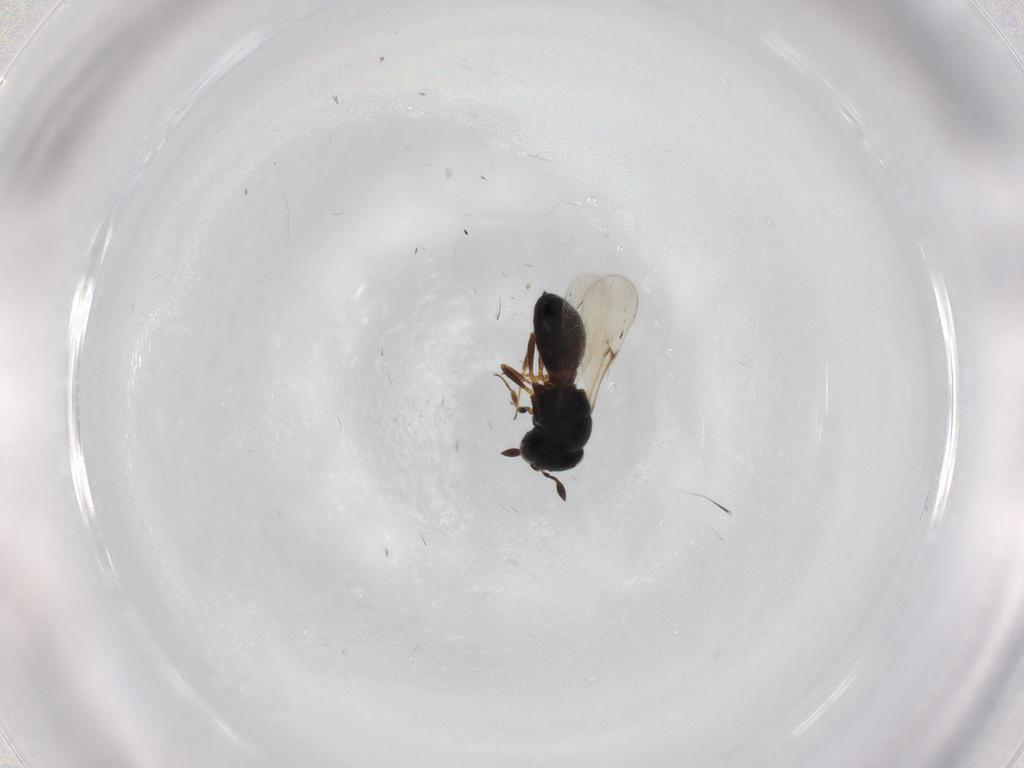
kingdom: Animalia
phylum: Arthropoda
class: Insecta
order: Hymenoptera
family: Scelionidae
